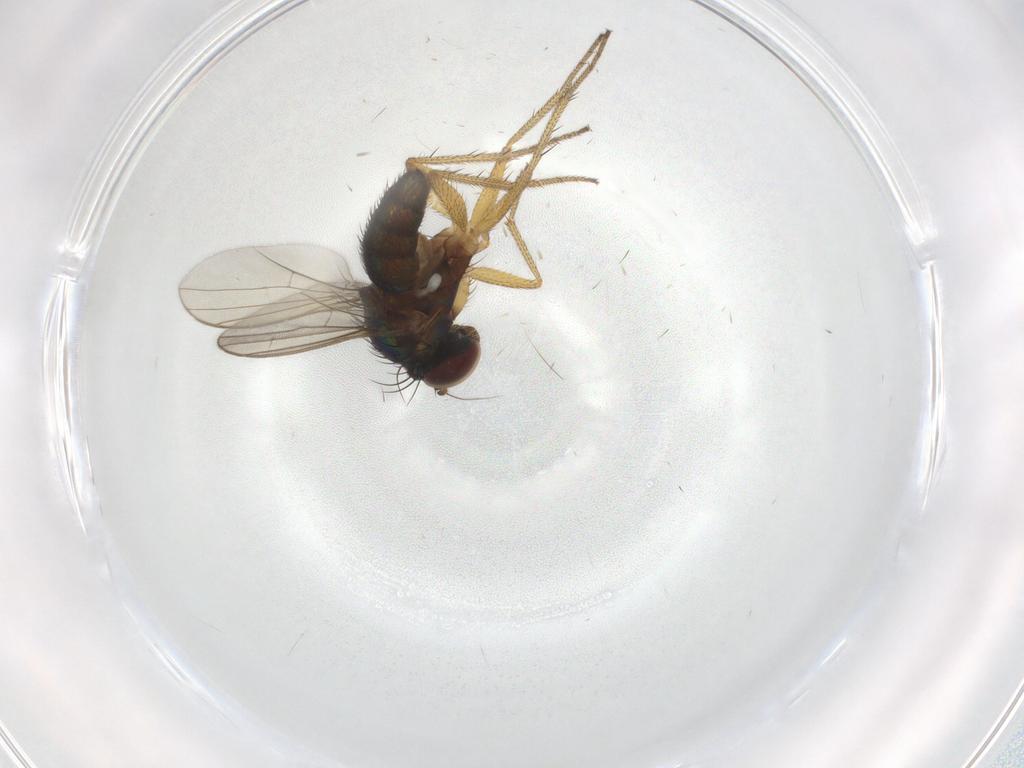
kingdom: Animalia
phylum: Arthropoda
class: Insecta
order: Diptera
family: Dolichopodidae
